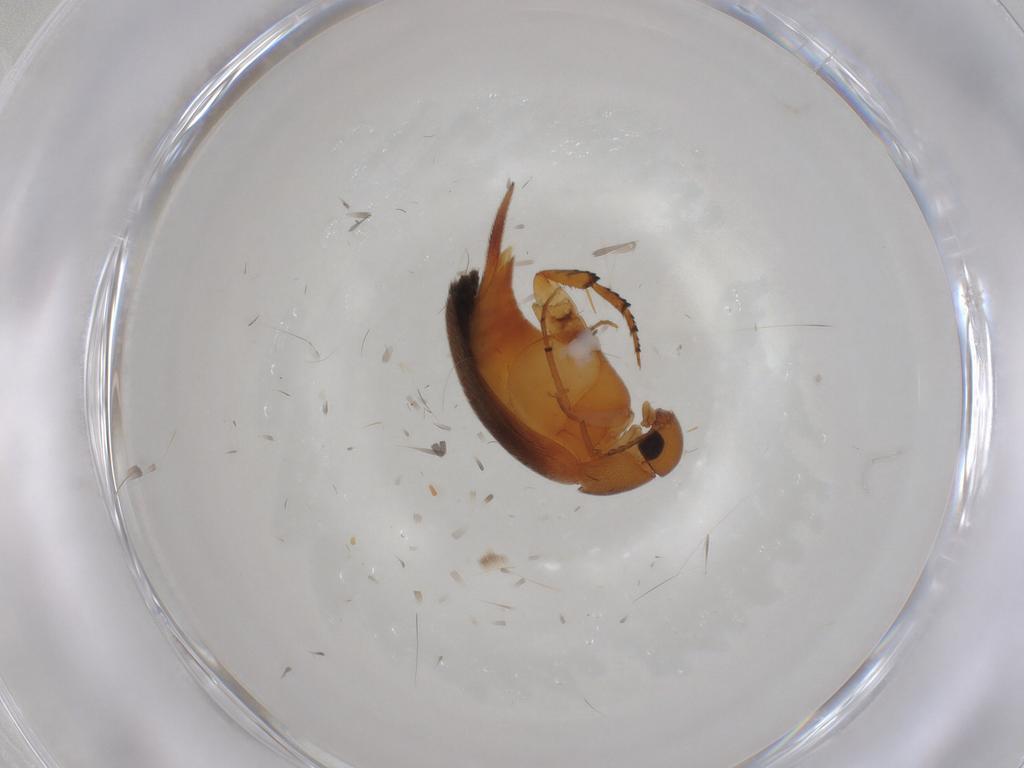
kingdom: Animalia
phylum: Arthropoda
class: Insecta
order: Coleoptera
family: Mordellidae
